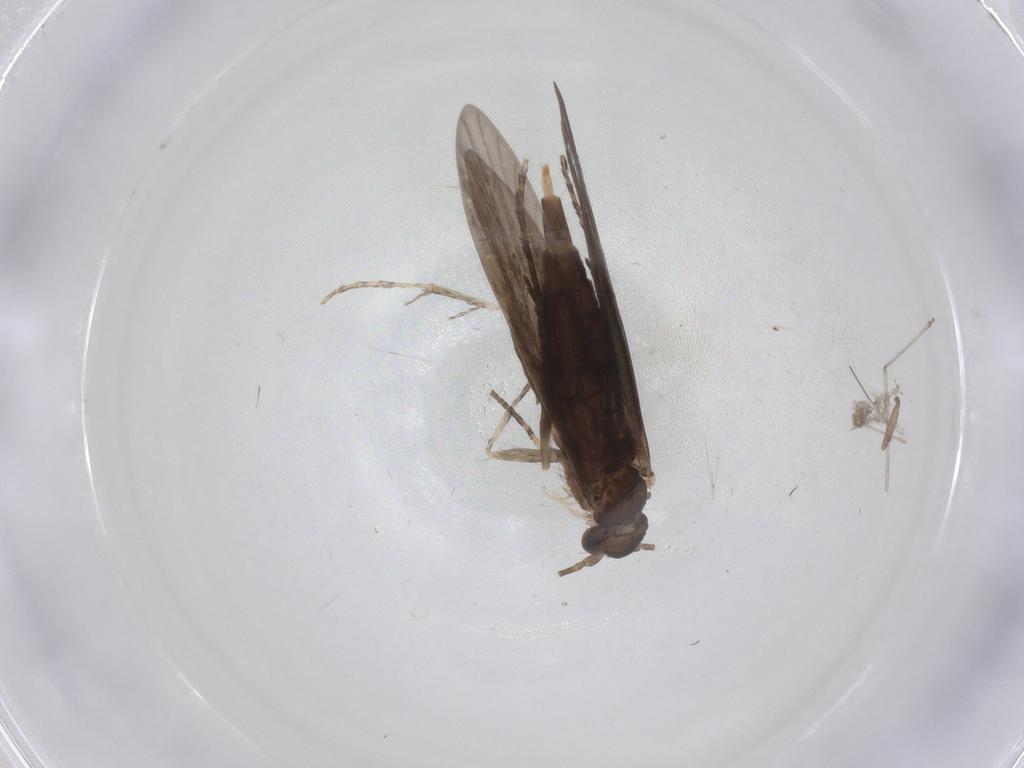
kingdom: Animalia
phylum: Arthropoda
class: Insecta
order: Trichoptera
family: Xiphocentronidae
